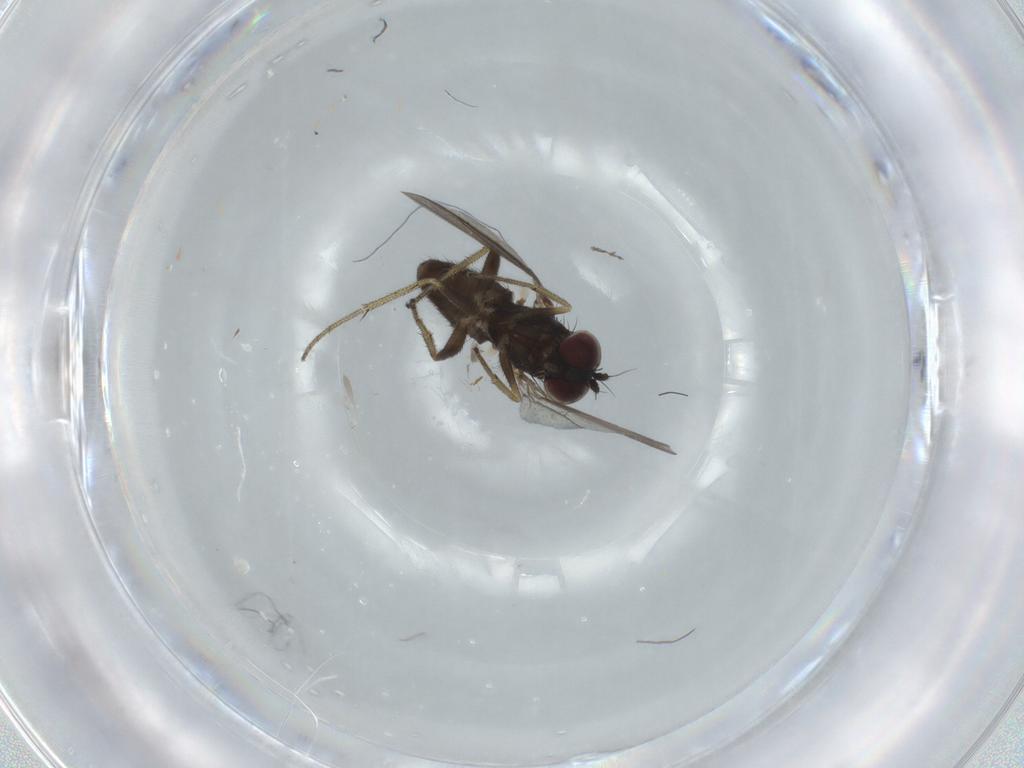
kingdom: Animalia
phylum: Arthropoda
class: Insecta
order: Diptera
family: Dolichopodidae
